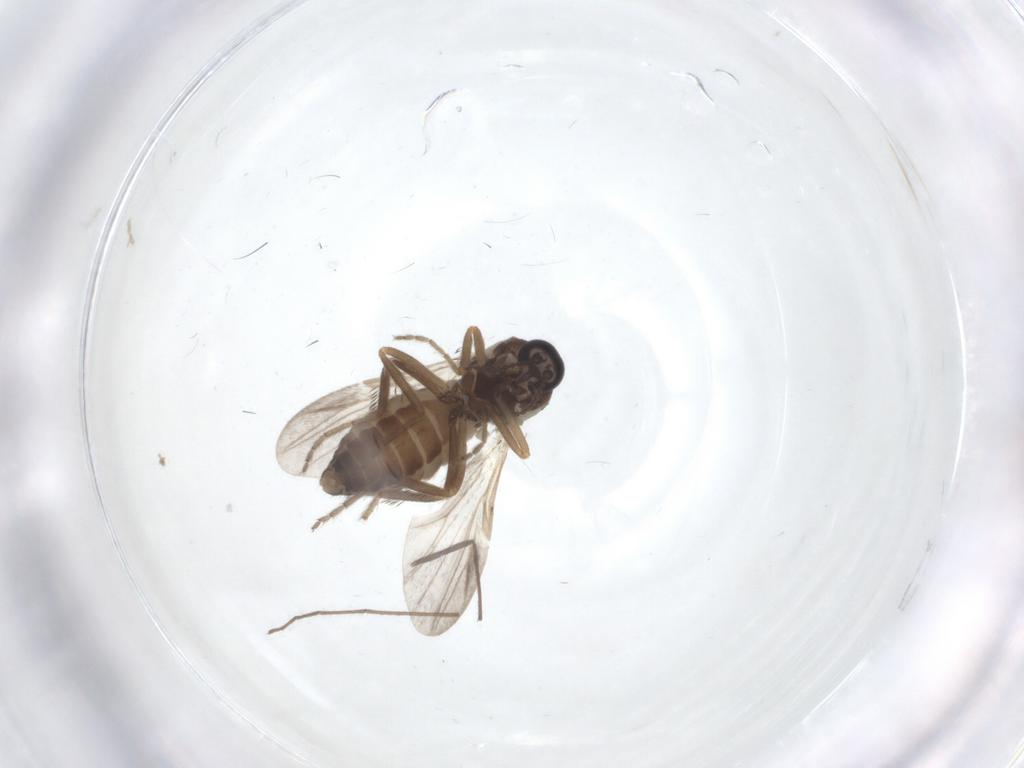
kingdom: Animalia
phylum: Arthropoda
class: Insecta
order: Diptera
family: Ceratopogonidae
